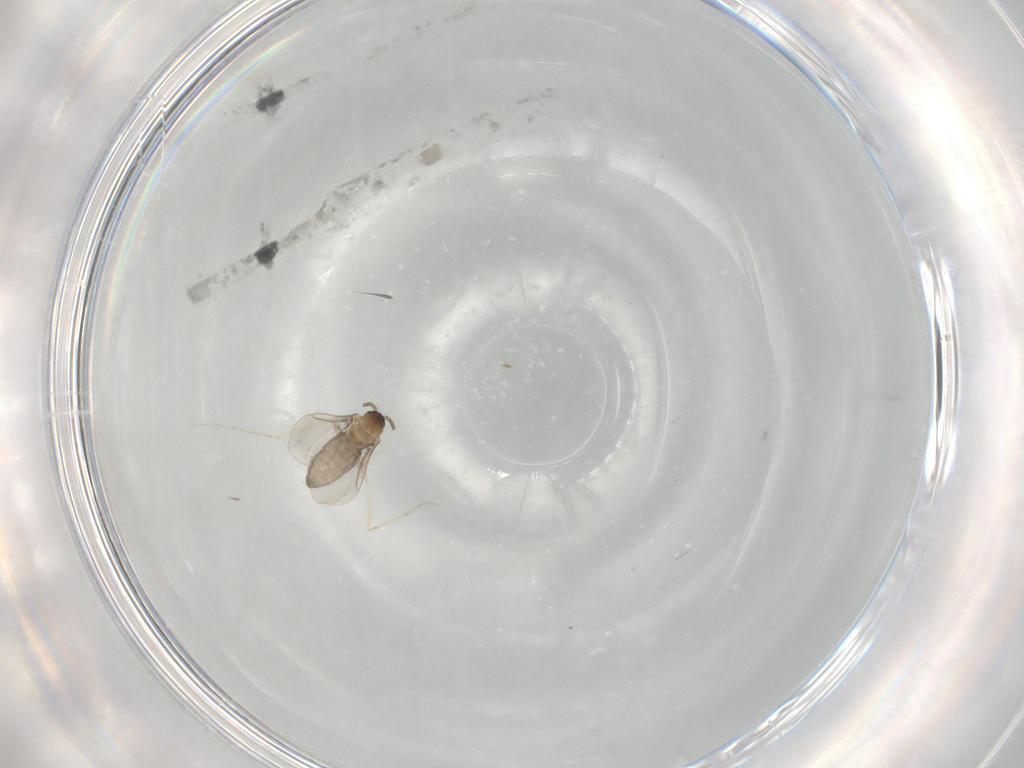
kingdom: Animalia
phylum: Arthropoda
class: Insecta
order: Diptera
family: Cecidomyiidae
